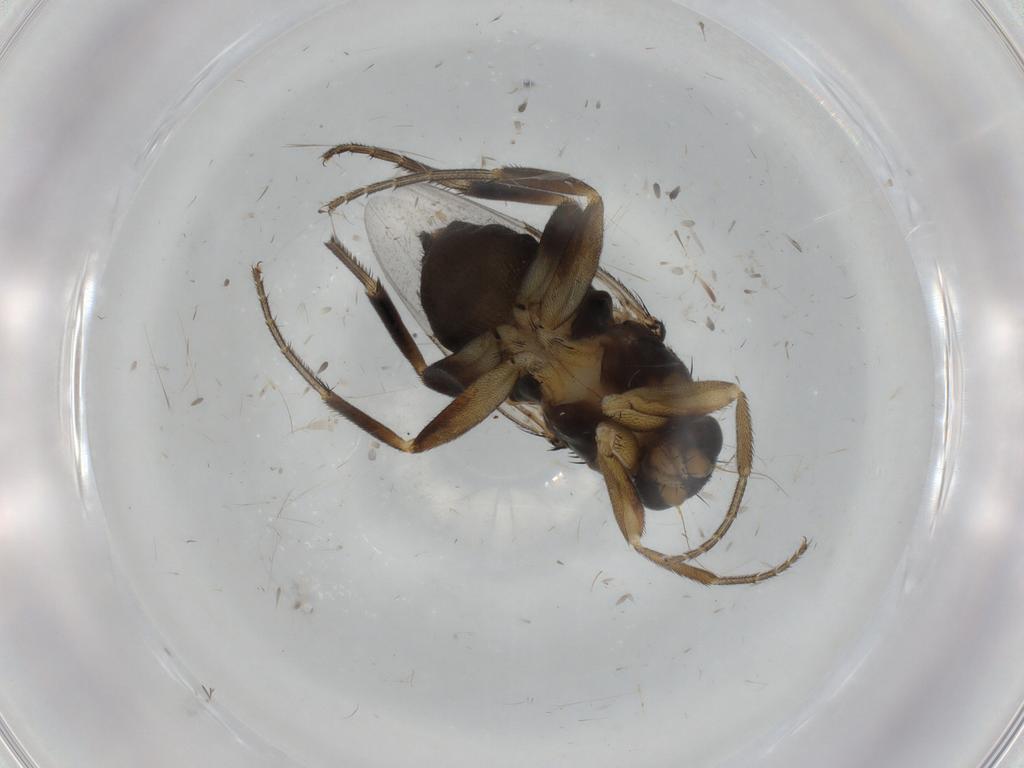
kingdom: Animalia
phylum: Arthropoda
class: Insecta
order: Diptera
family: Phoridae
